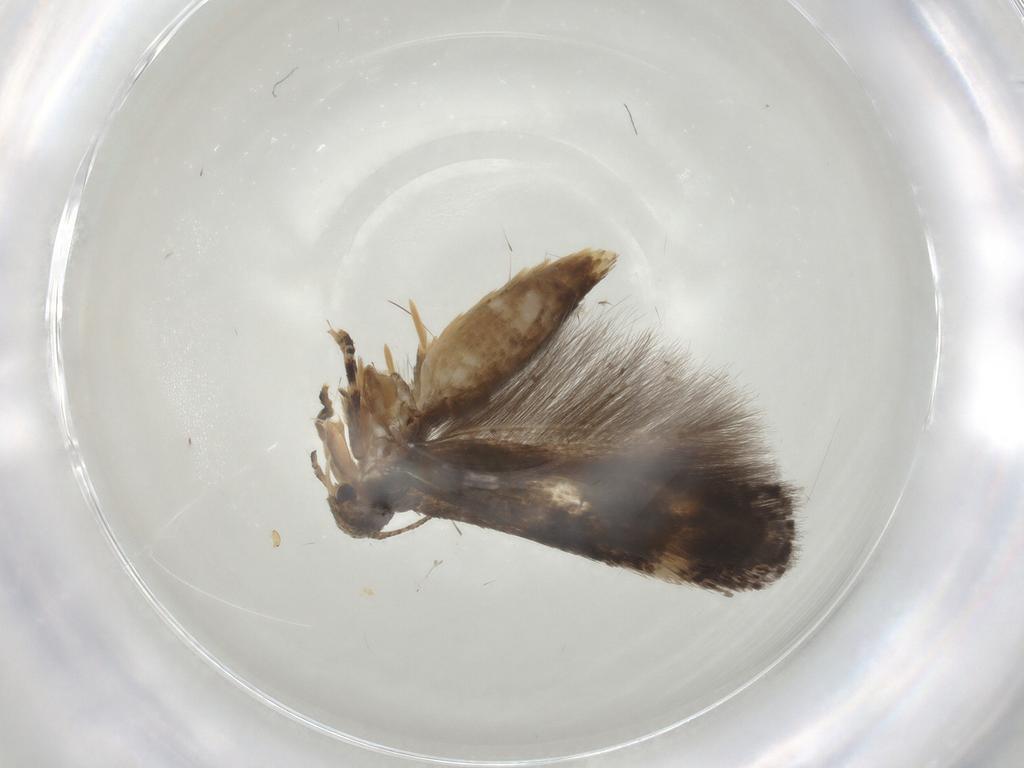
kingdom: Animalia
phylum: Arthropoda
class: Insecta
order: Lepidoptera
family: Elachistidae
